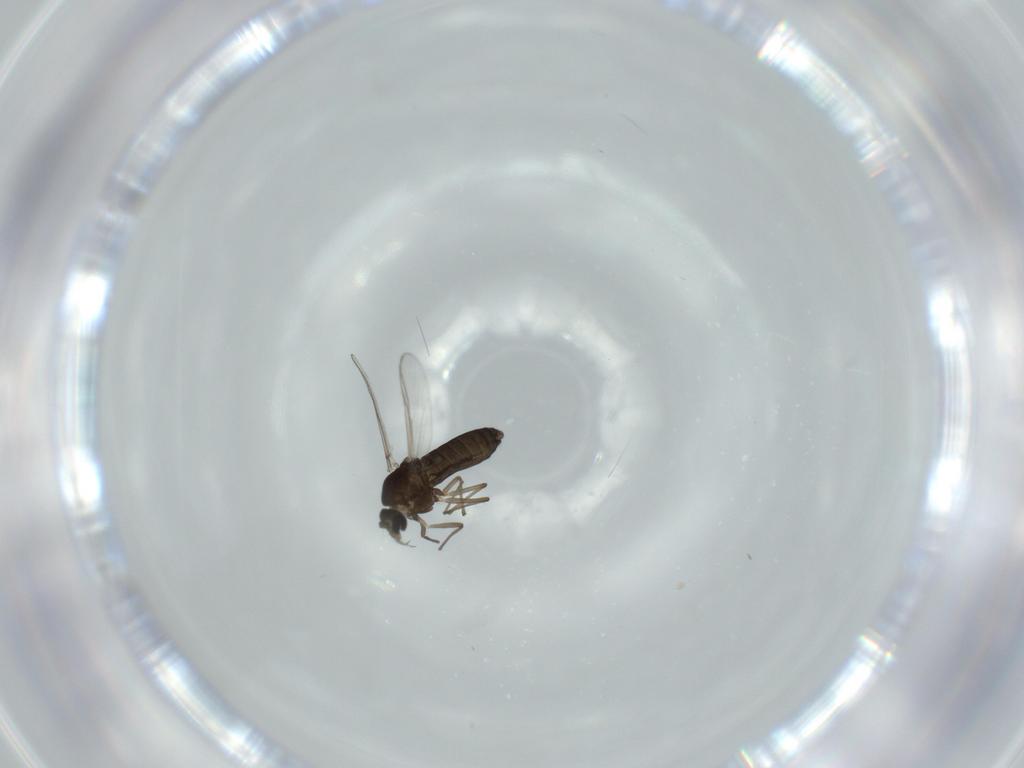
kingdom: Animalia
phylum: Arthropoda
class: Insecta
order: Diptera
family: Chironomidae
